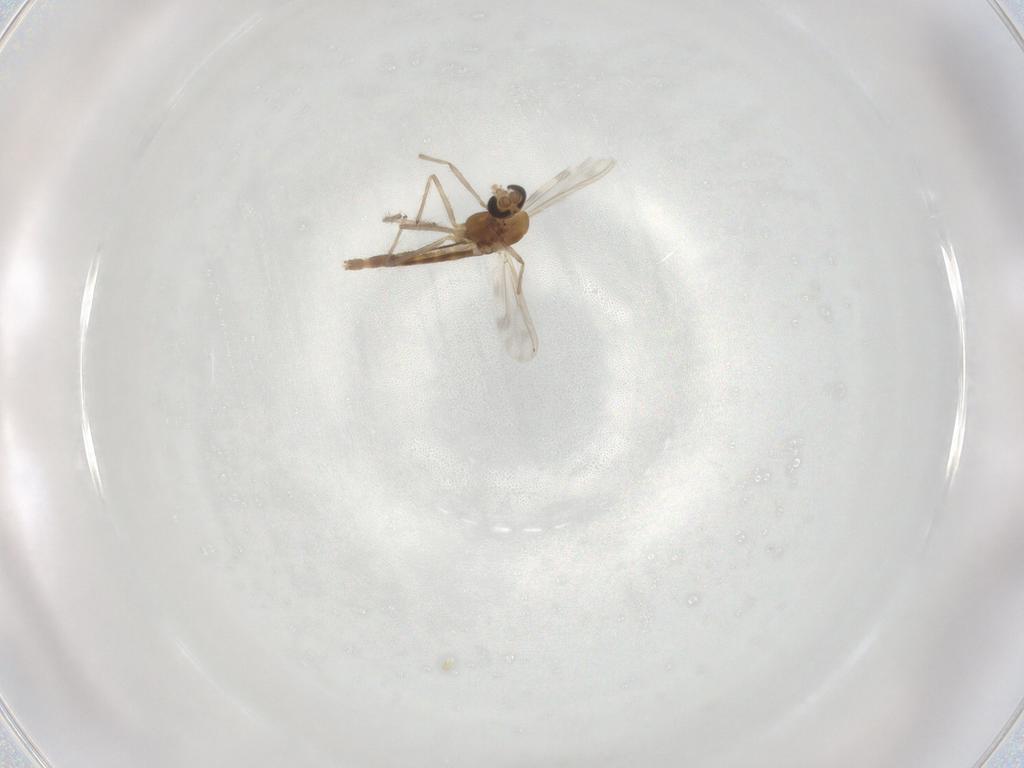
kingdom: Animalia
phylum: Arthropoda
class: Insecta
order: Diptera
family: Chironomidae
